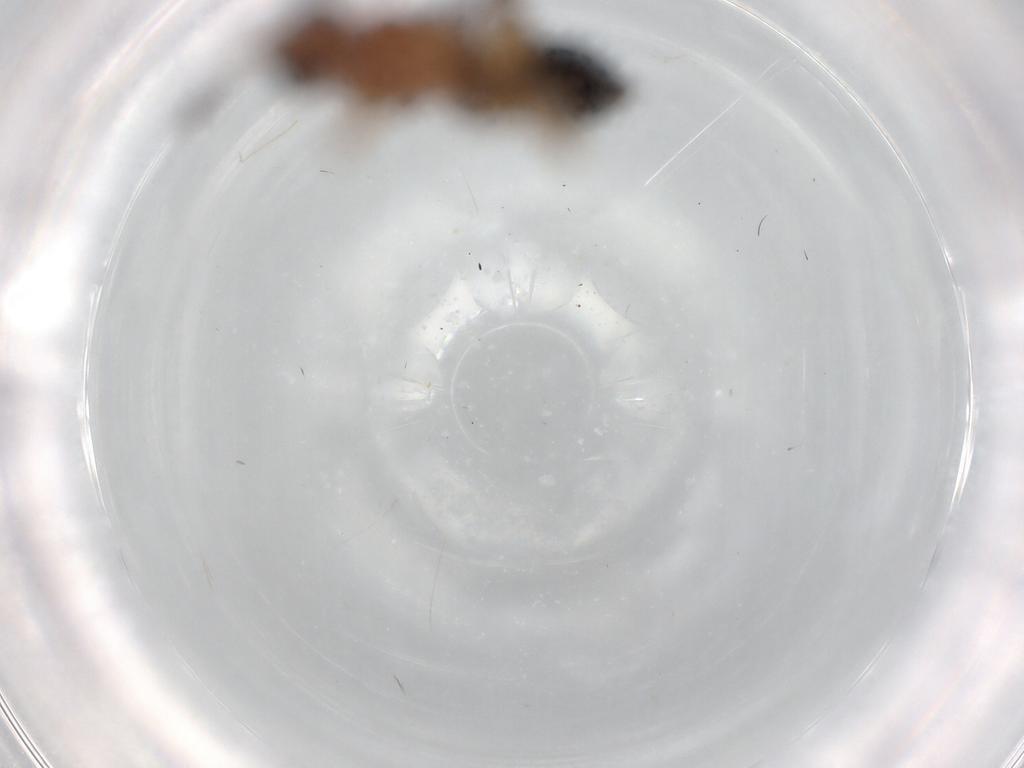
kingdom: Animalia
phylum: Arthropoda
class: Insecta
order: Hymenoptera
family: Ichneumonidae
